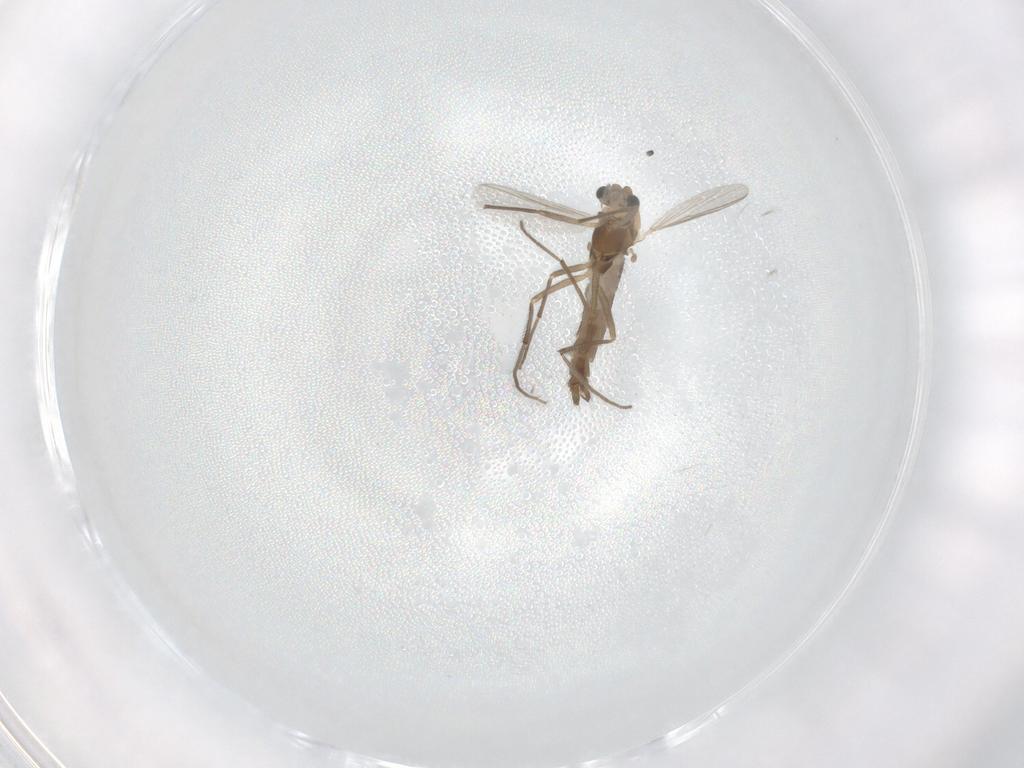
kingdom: Animalia
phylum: Arthropoda
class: Insecta
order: Diptera
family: Chironomidae
